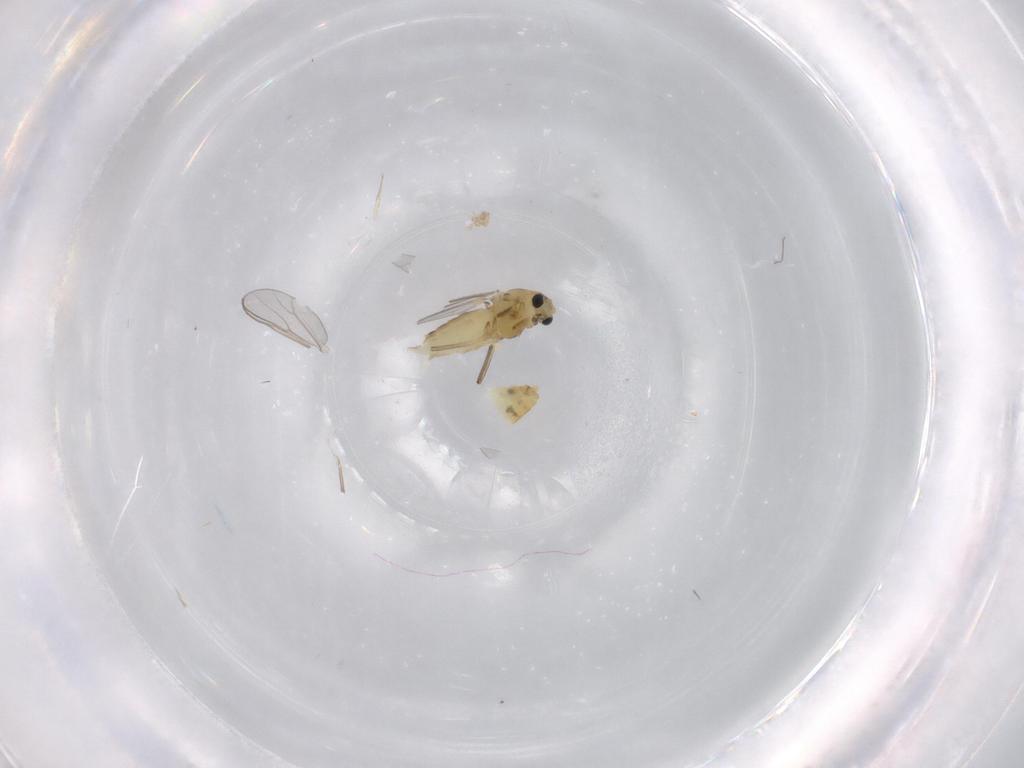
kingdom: Animalia
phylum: Arthropoda
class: Insecta
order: Diptera
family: Chironomidae
